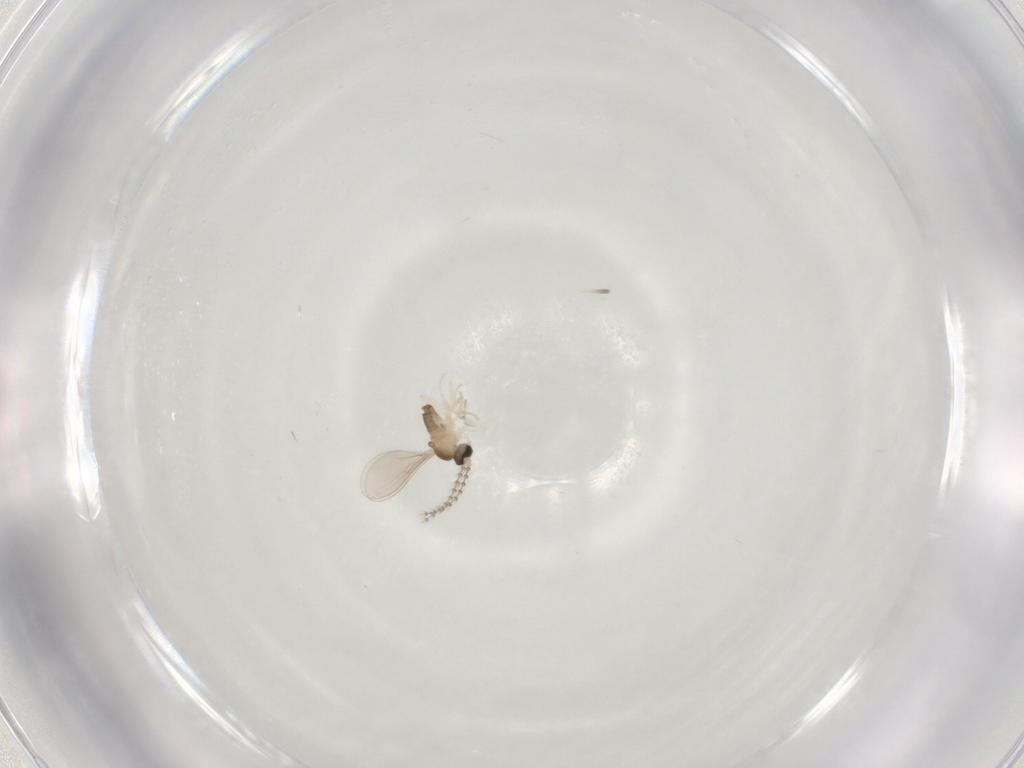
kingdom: Animalia
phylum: Arthropoda
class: Insecta
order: Diptera
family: Cecidomyiidae
